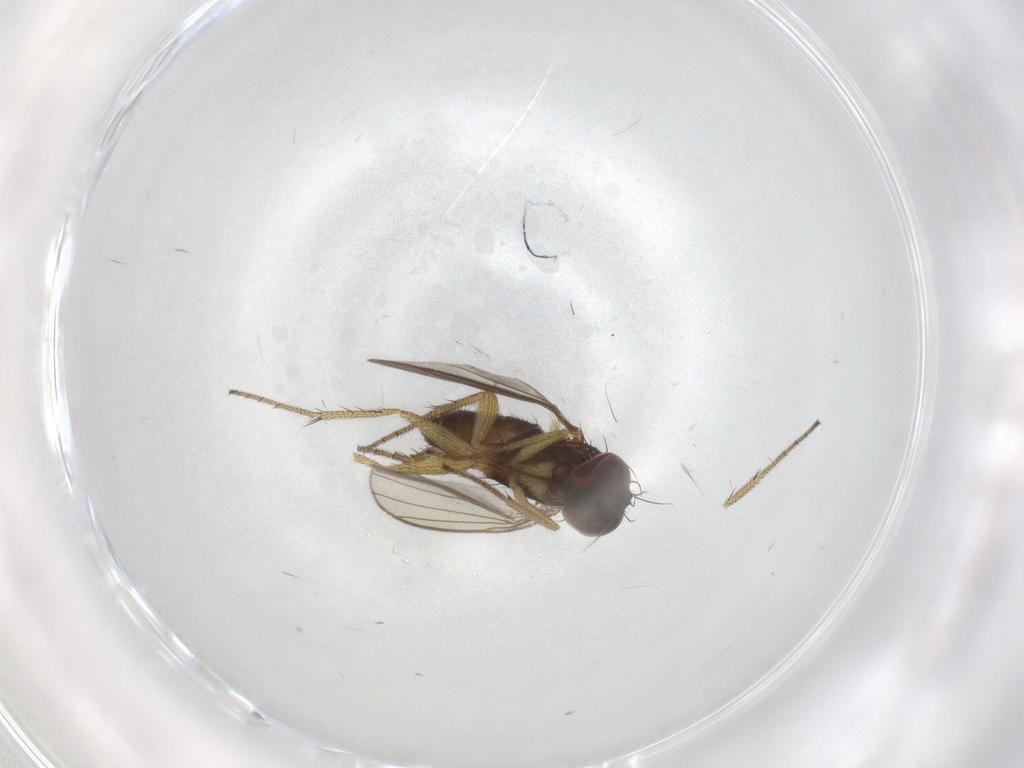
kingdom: Animalia
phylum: Arthropoda
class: Insecta
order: Diptera
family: Dolichopodidae
